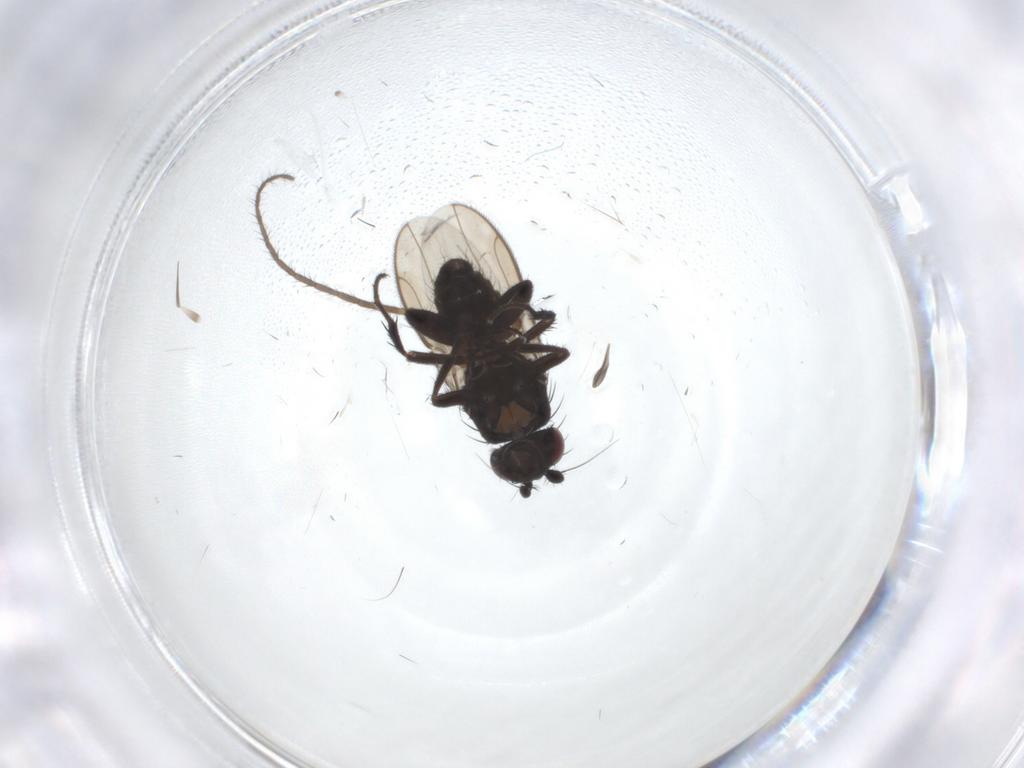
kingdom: Animalia
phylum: Arthropoda
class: Insecta
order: Diptera
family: Sphaeroceridae
